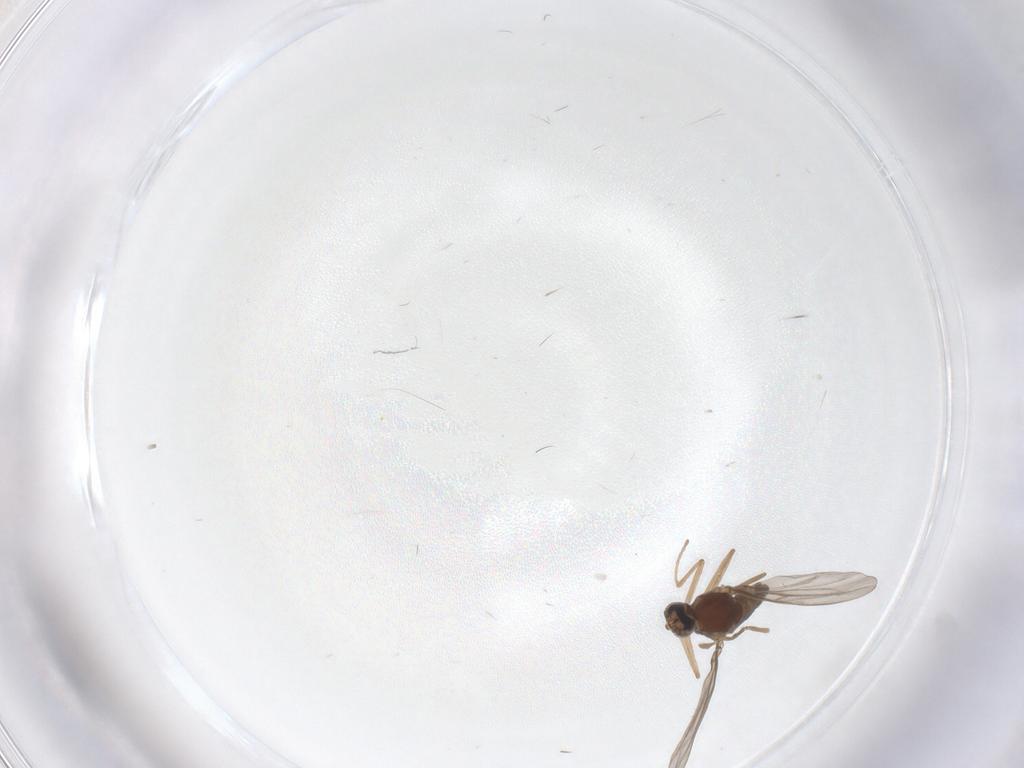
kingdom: Animalia
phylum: Arthropoda
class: Insecta
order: Diptera
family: Cecidomyiidae
